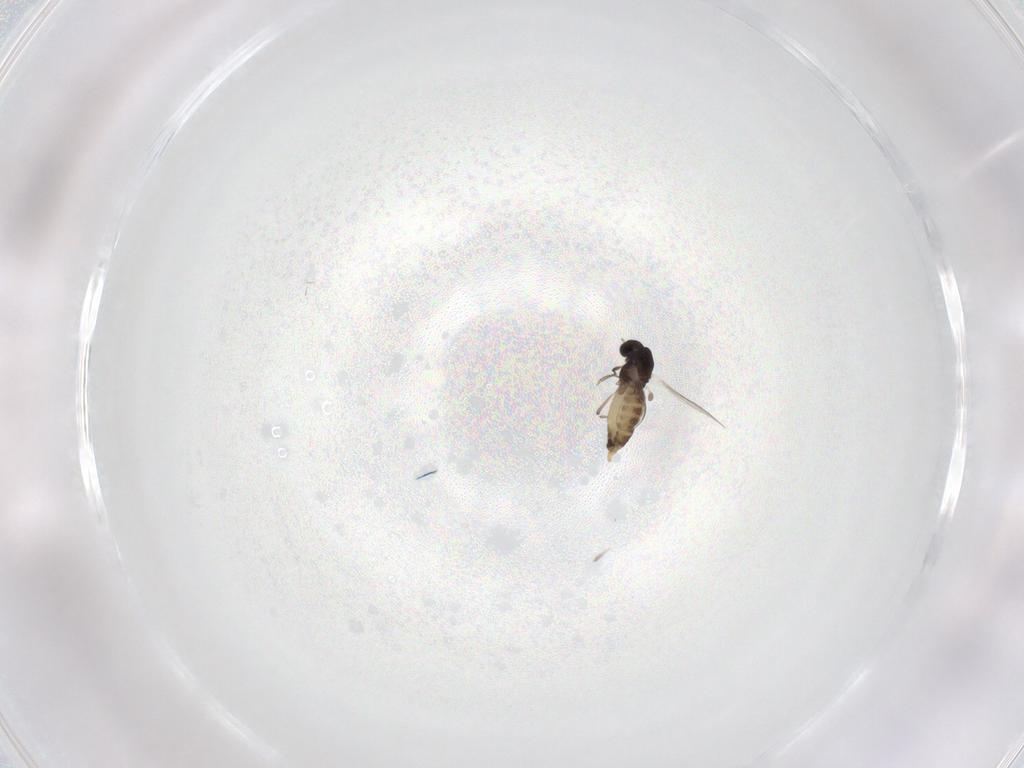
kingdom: Animalia
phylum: Arthropoda
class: Insecta
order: Diptera
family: Chironomidae
